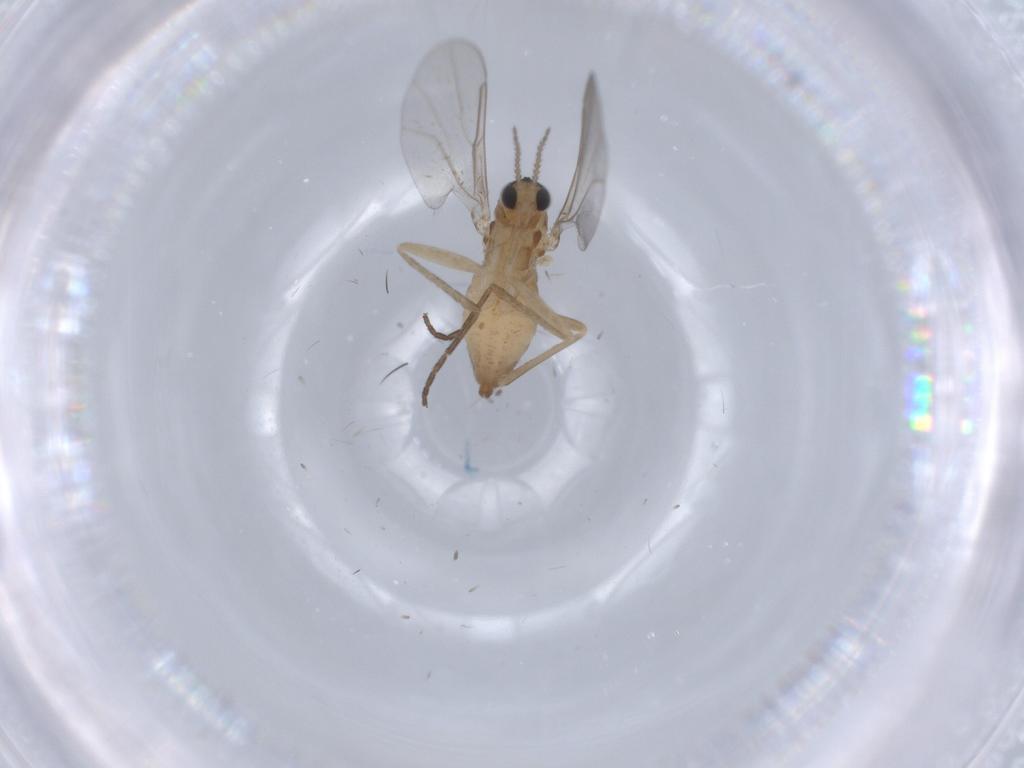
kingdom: Animalia
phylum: Arthropoda
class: Insecta
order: Diptera
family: Cecidomyiidae
